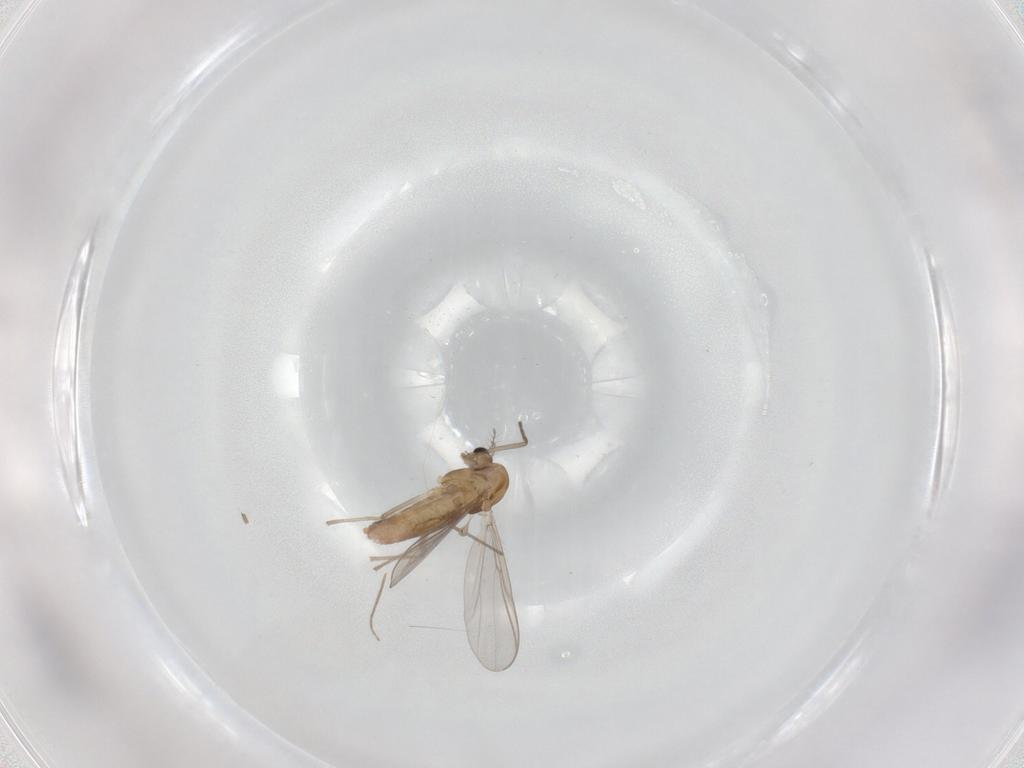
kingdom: Animalia
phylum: Arthropoda
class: Insecta
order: Diptera
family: Chironomidae
